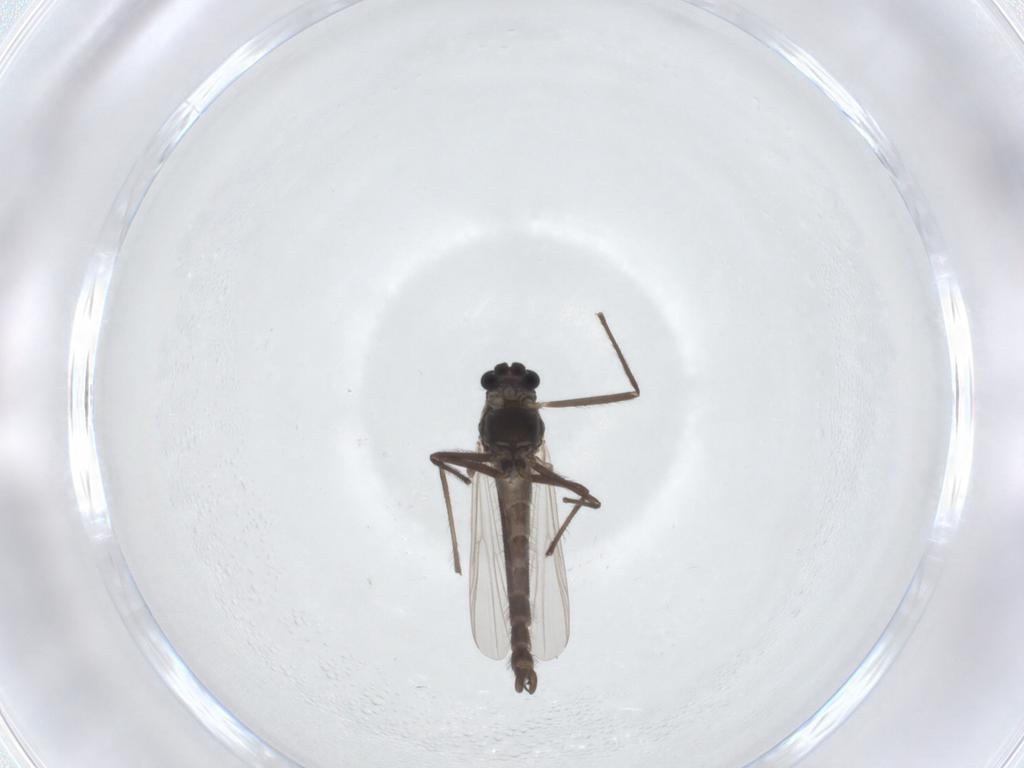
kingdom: Animalia
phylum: Arthropoda
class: Insecta
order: Diptera
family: Chironomidae
